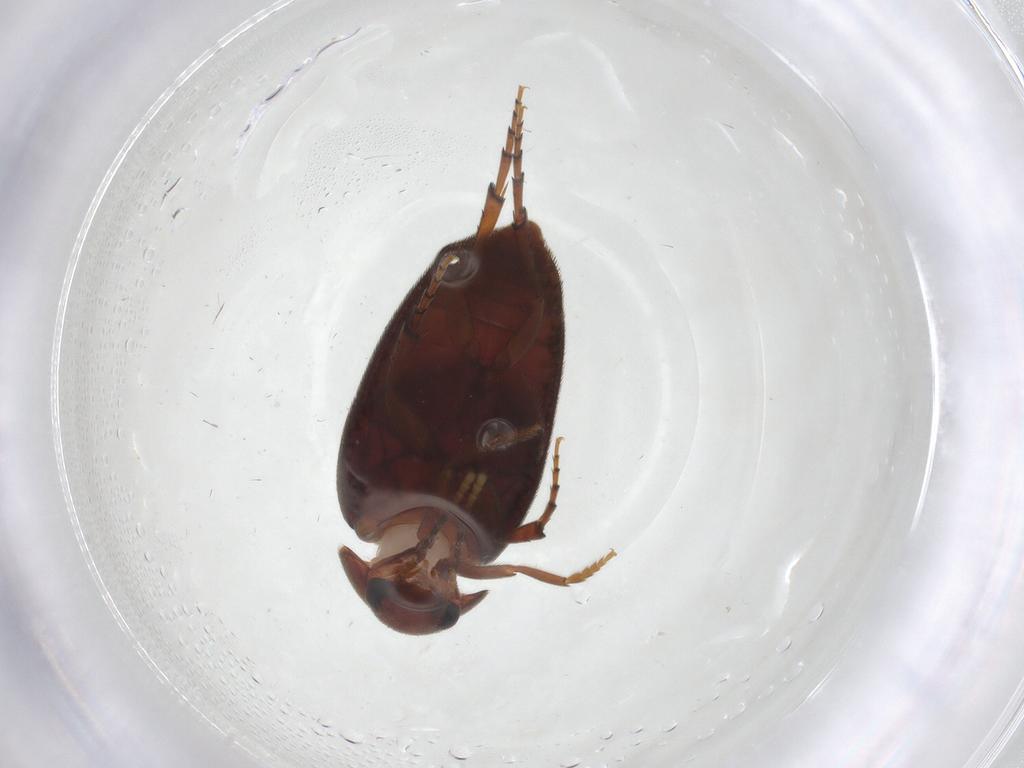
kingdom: Animalia
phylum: Arthropoda
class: Insecta
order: Coleoptera
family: Eucinetidae
